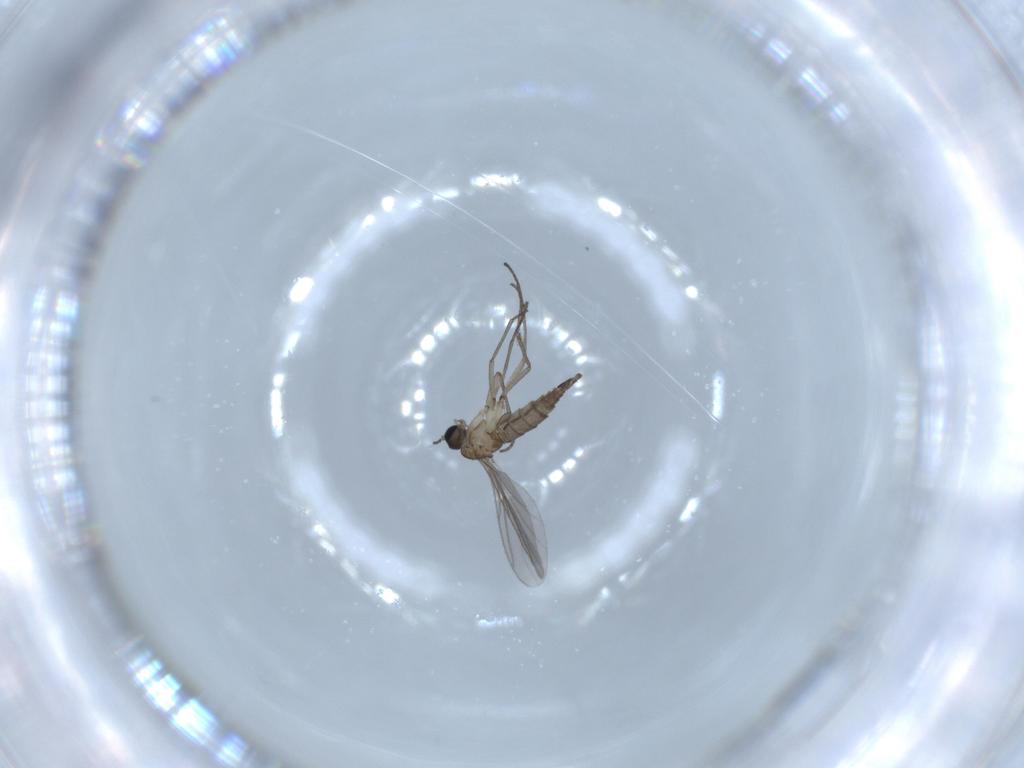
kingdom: Animalia
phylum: Arthropoda
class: Insecta
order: Diptera
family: Sciaridae
